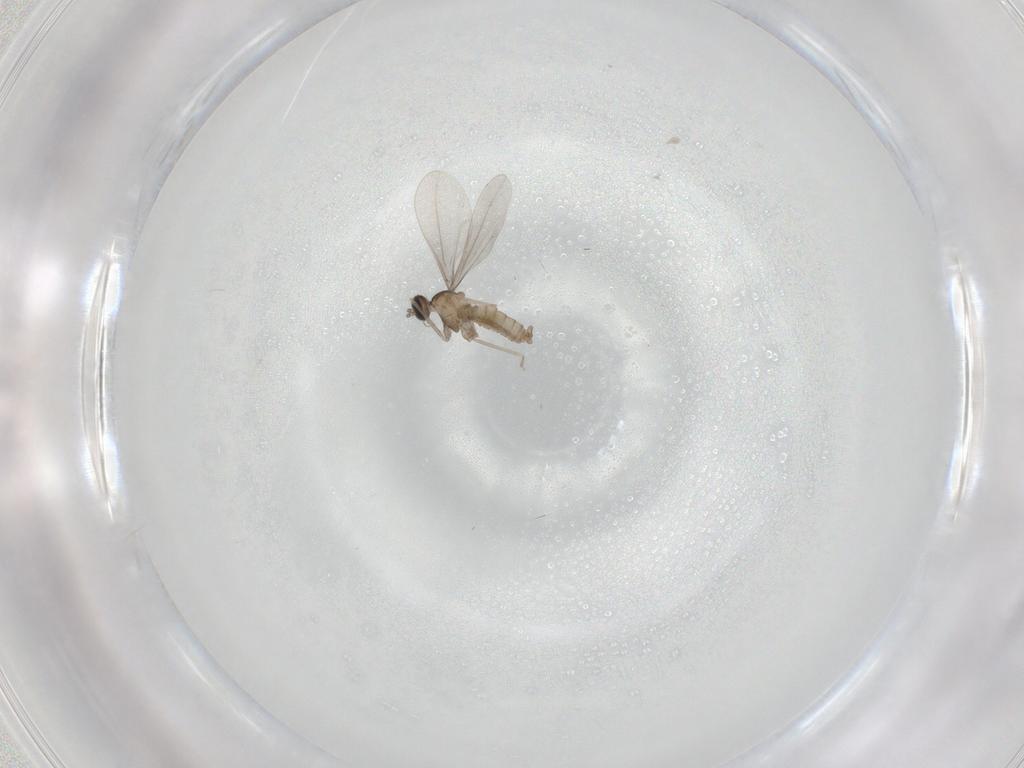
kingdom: Animalia
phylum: Arthropoda
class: Insecta
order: Diptera
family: Cecidomyiidae
